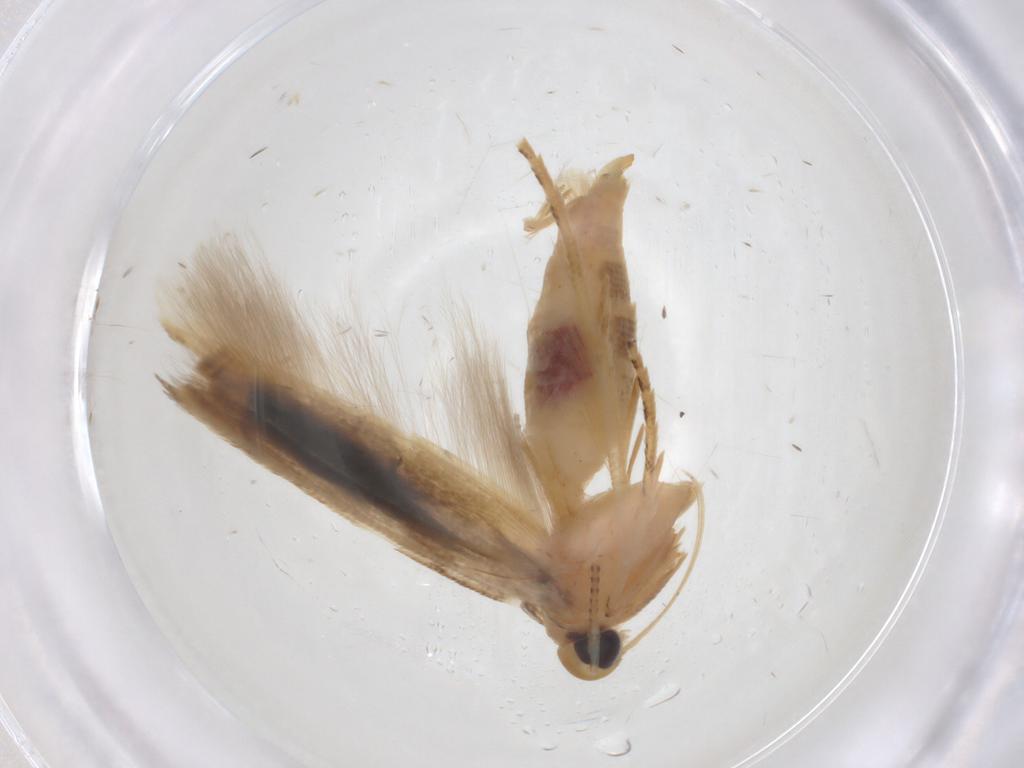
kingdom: Animalia
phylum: Arthropoda
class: Insecta
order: Lepidoptera
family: Momphidae
